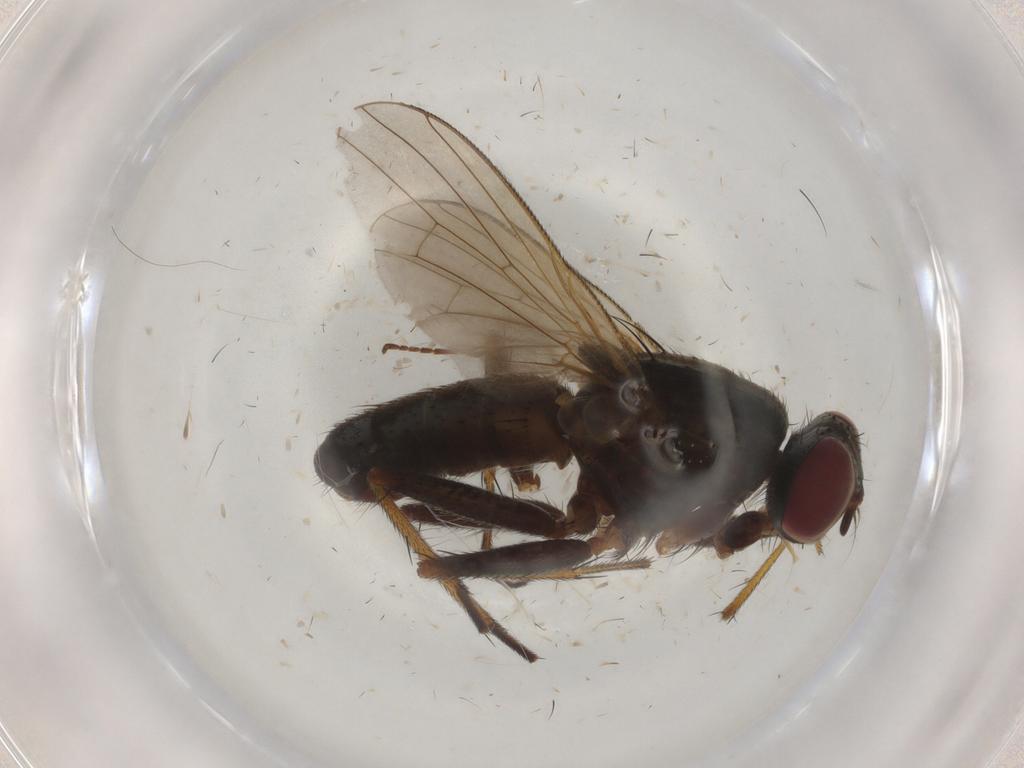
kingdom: Animalia
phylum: Arthropoda
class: Insecta
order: Diptera
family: Muscidae
